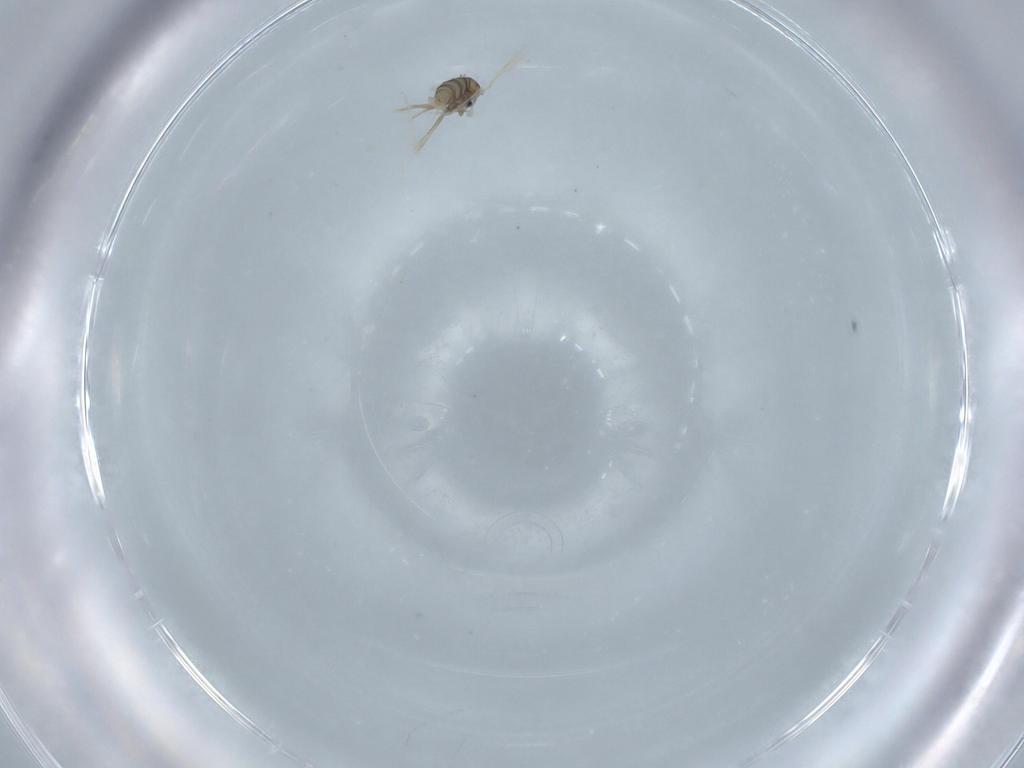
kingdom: Animalia
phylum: Arthropoda
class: Insecta
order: Diptera
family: Cecidomyiidae
